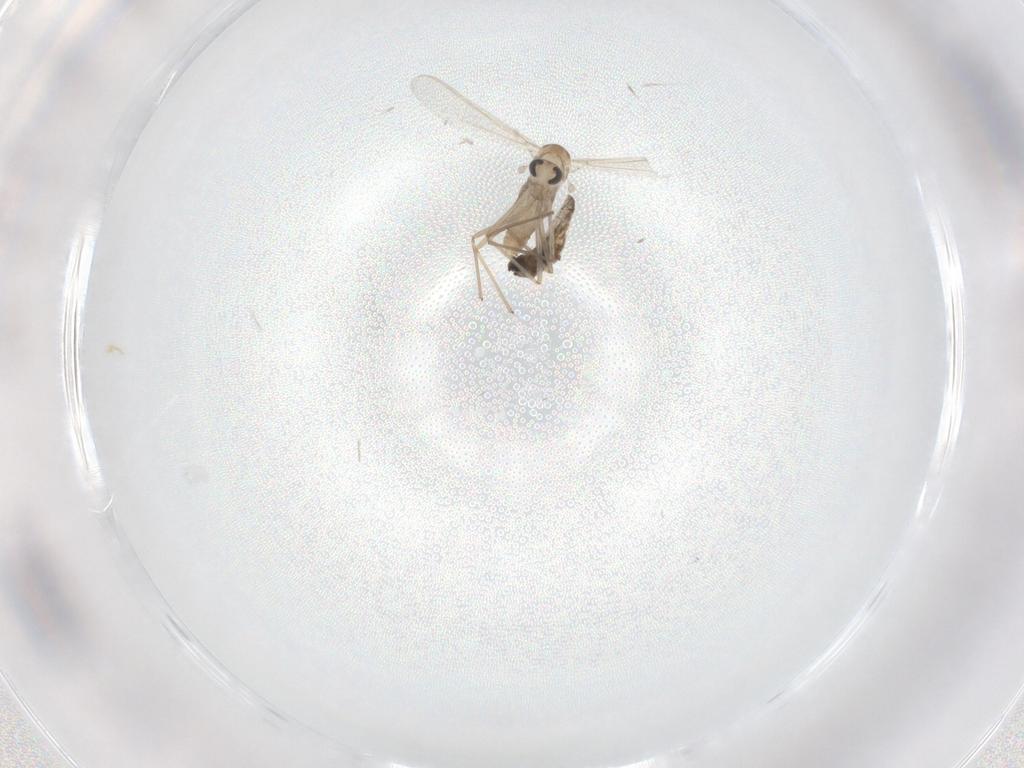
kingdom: Animalia
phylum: Arthropoda
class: Insecta
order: Diptera
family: Chironomidae
